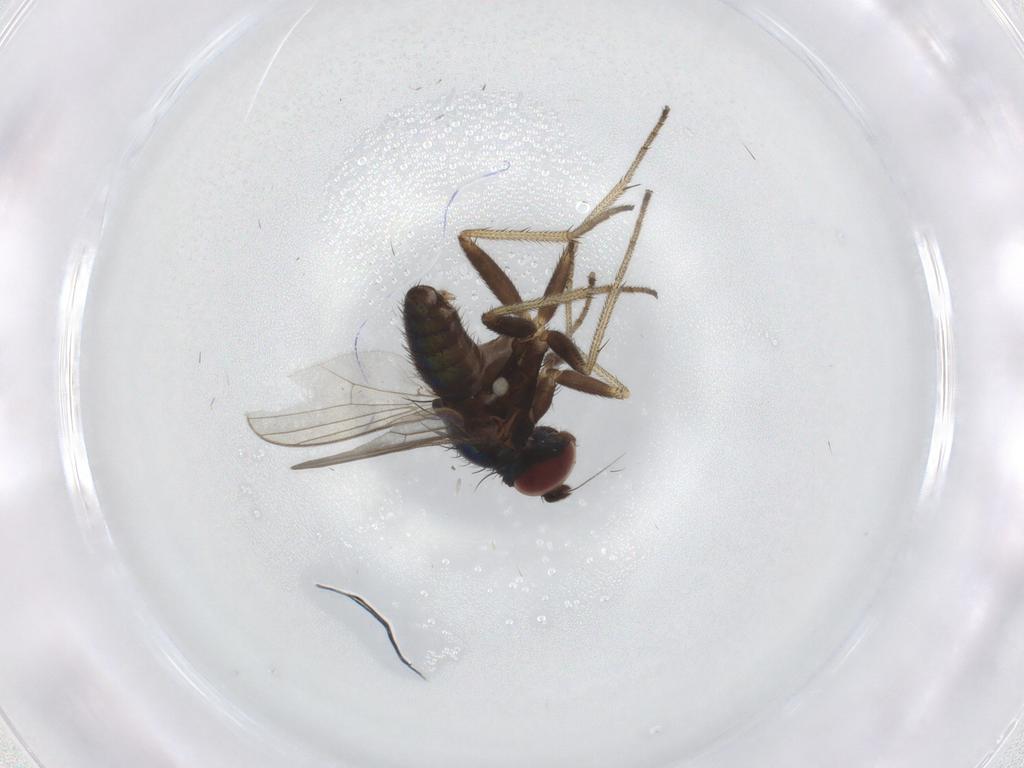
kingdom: Animalia
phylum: Arthropoda
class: Insecta
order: Diptera
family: Dolichopodidae
